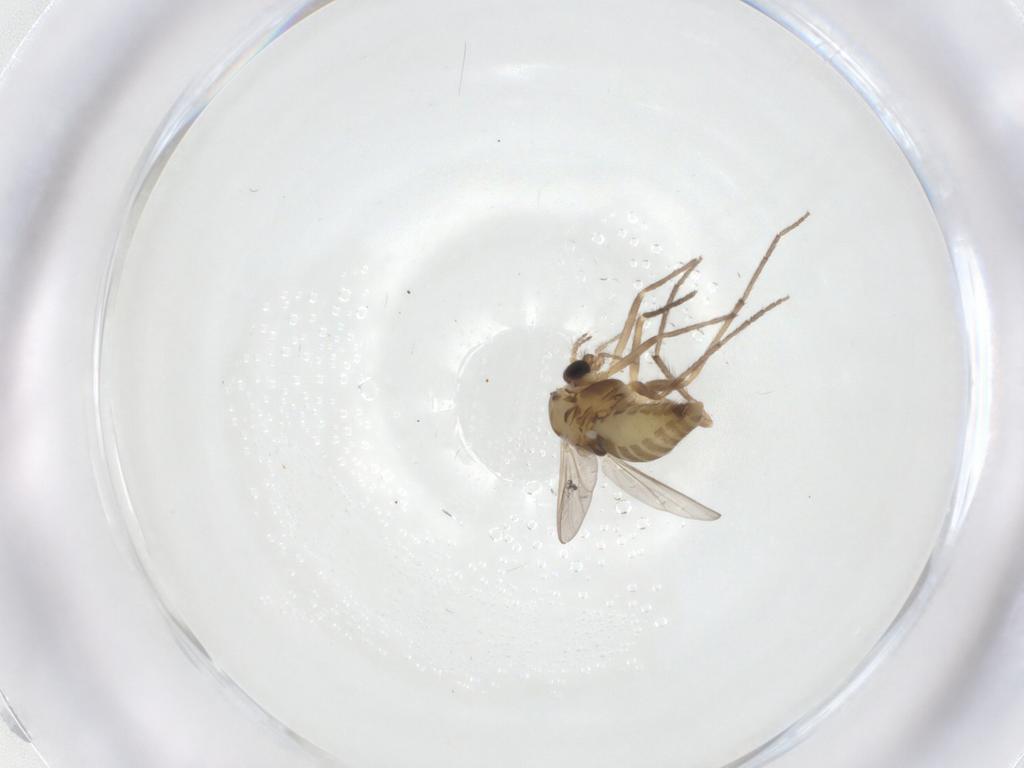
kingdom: Animalia
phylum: Arthropoda
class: Insecta
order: Diptera
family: Chironomidae
